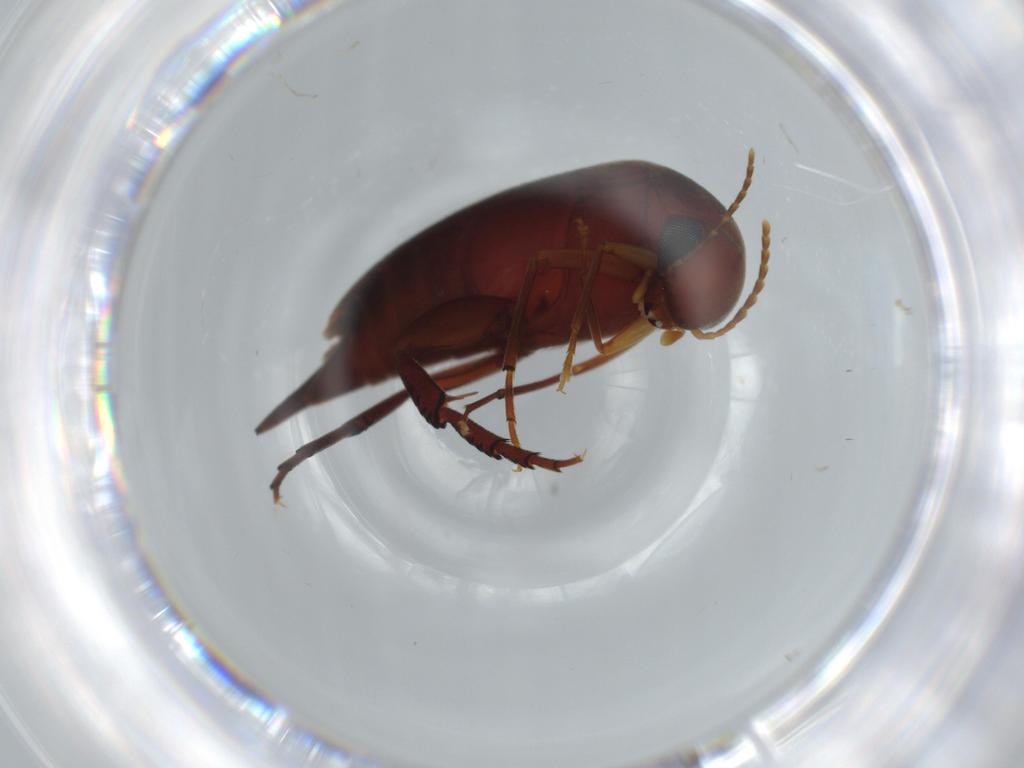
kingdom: Animalia
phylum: Arthropoda
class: Insecta
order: Coleoptera
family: Mordellidae
